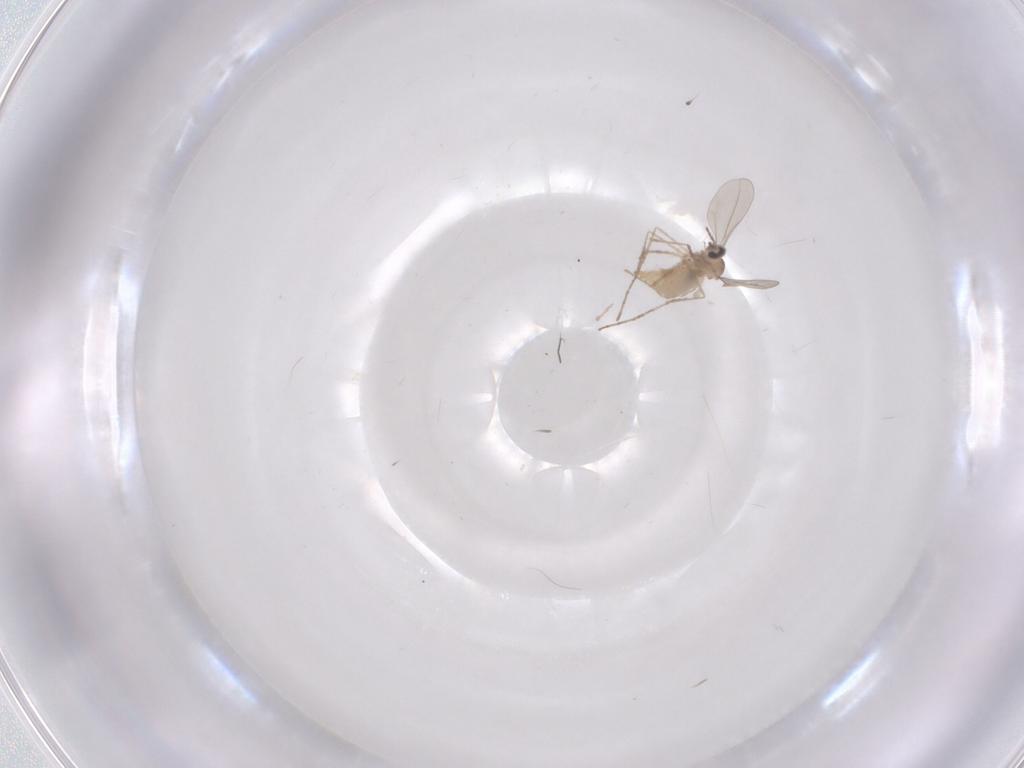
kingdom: Animalia
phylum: Arthropoda
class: Insecta
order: Diptera
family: Cecidomyiidae
